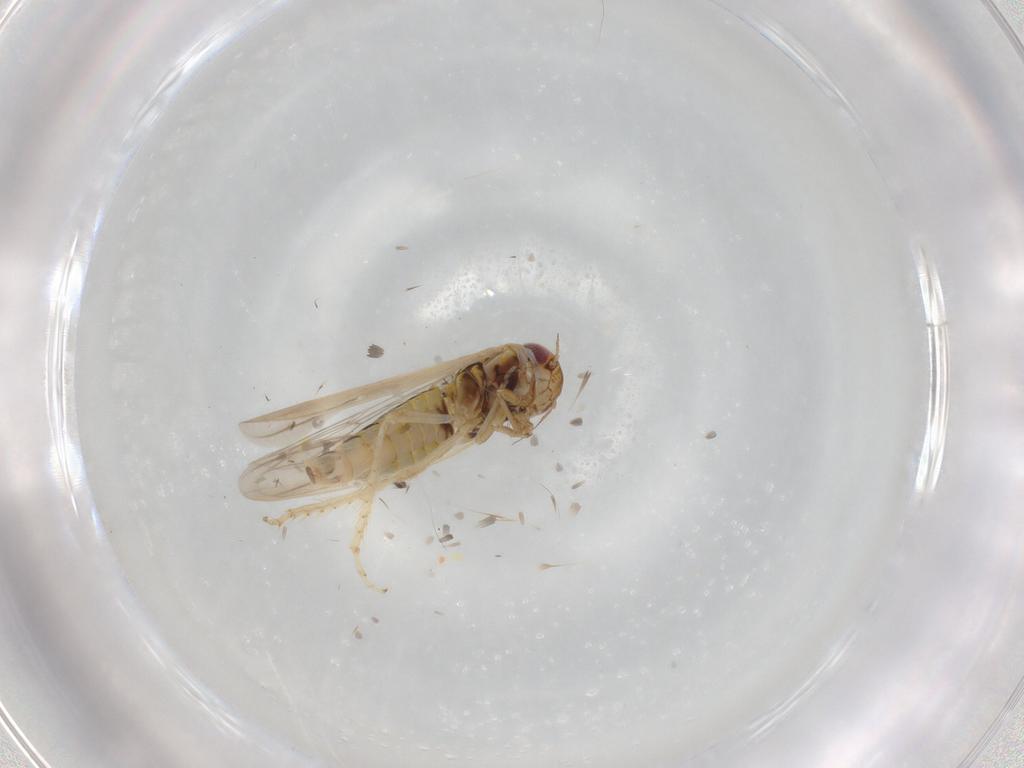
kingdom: Animalia
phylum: Arthropoda
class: Insecta
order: Hemiptera
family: Cicadellidae
